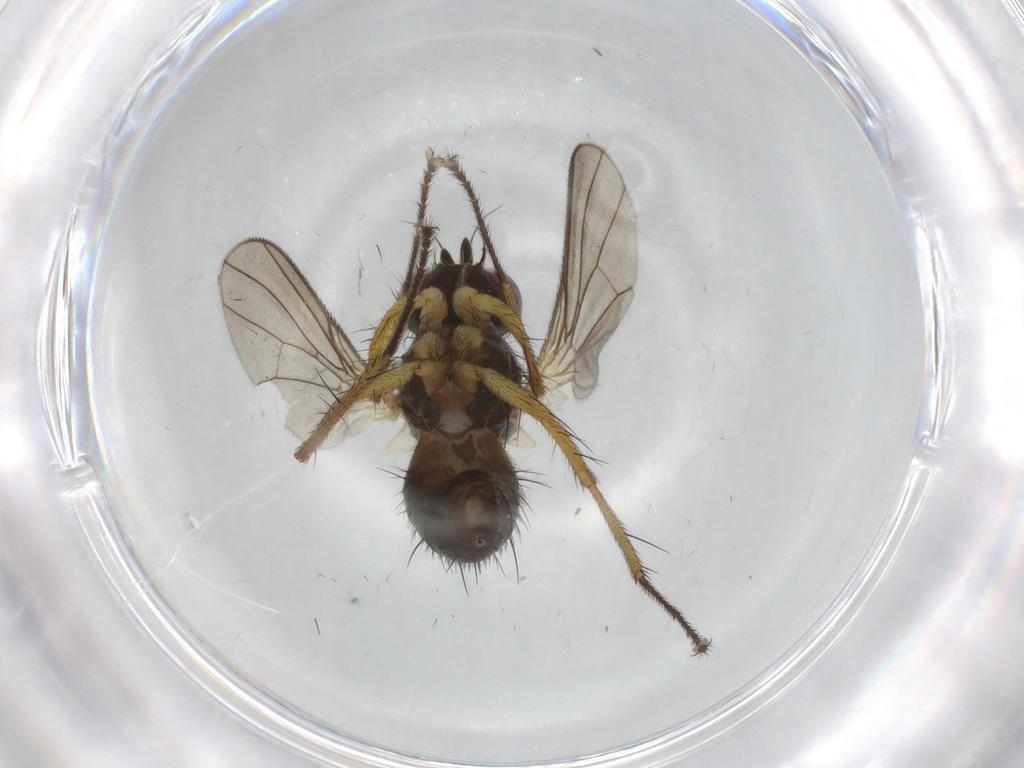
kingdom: Animalia
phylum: Arthropoda
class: Insecta
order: Diptera
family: Muscidae
